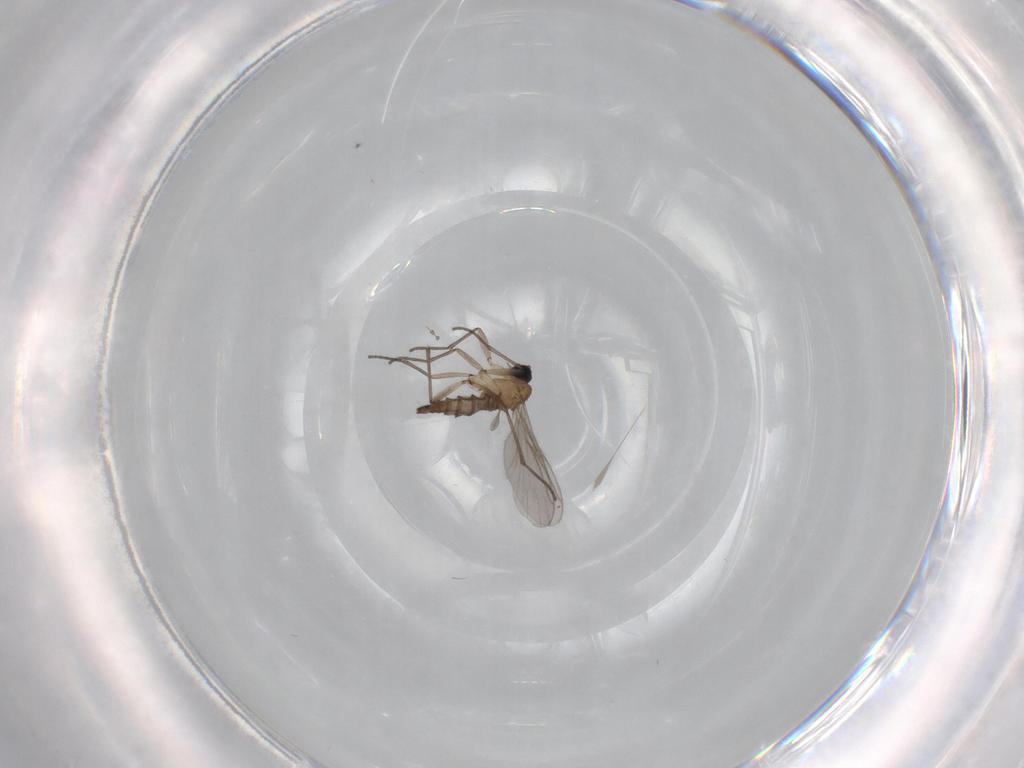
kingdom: Animalia
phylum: Arthropoda
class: Insecta
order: Diptera
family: Sciaridae
